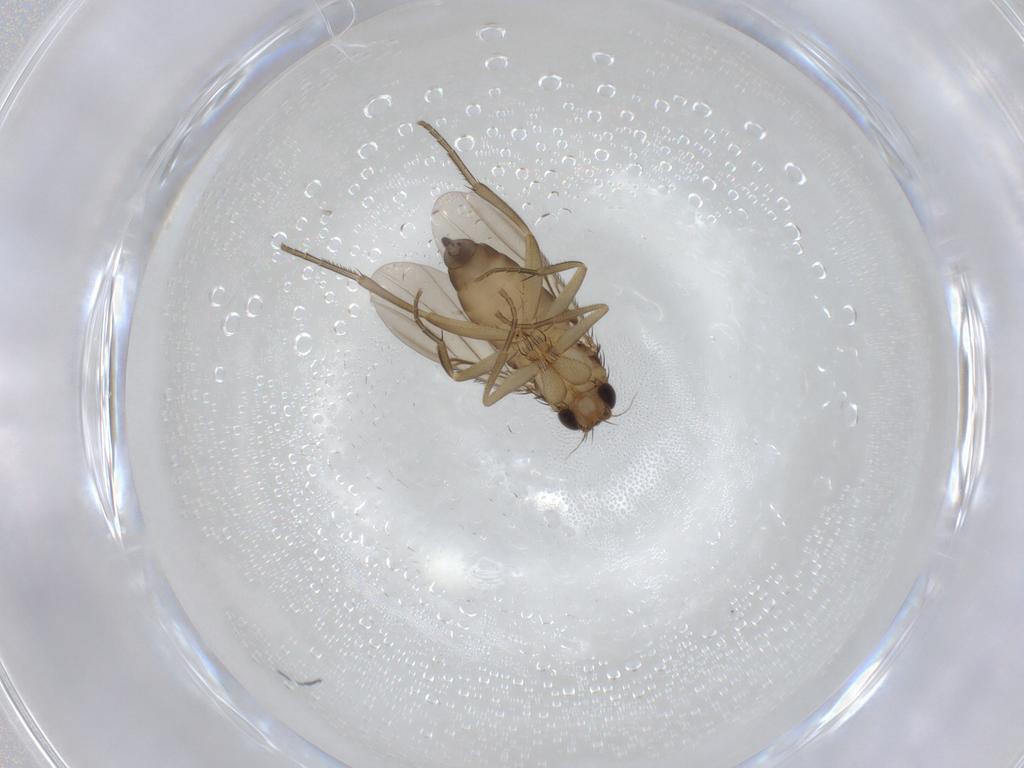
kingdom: Animalia
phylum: Arthropoda
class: Insecta
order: Diptera
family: Phoridae
